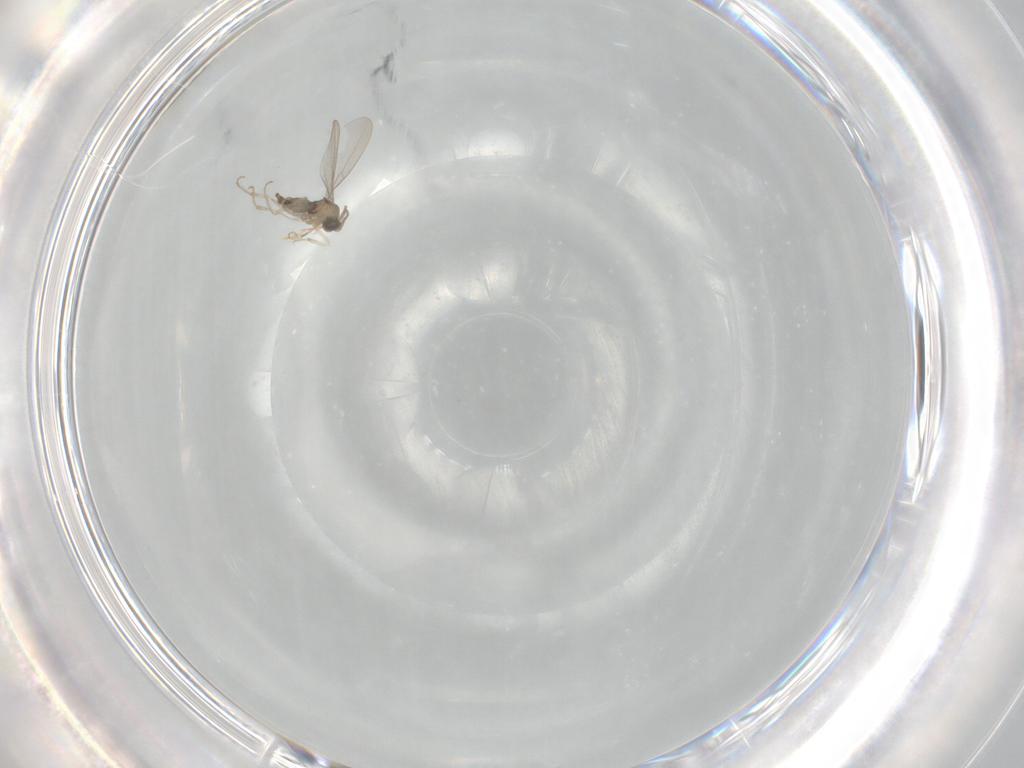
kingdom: Animalia
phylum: Arthropoda
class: Insecta
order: Diptera
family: Cecidomyiidae
